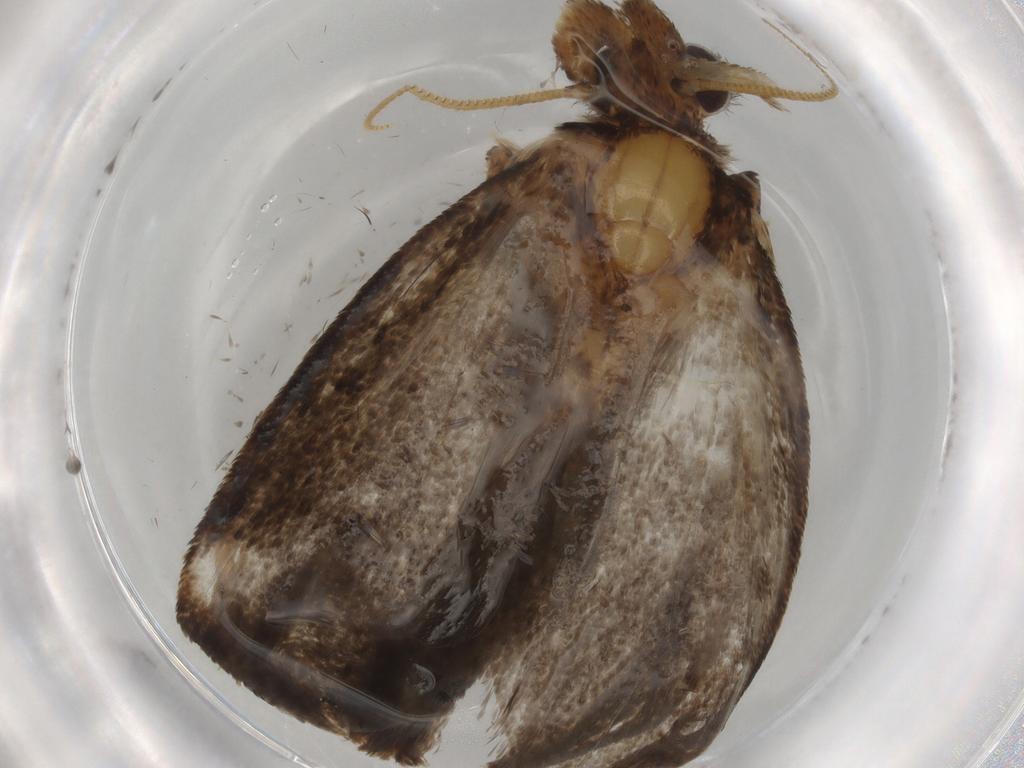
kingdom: Animalia
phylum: Arthropoda
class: Insecta
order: Lepidoptera
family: Tineidae
